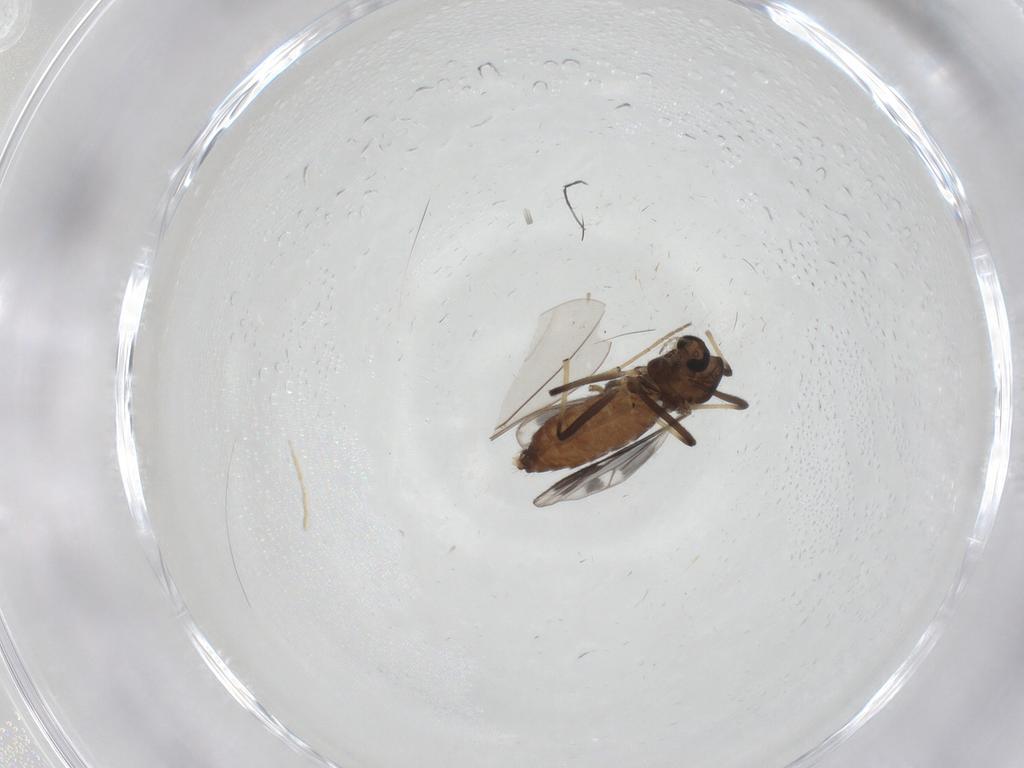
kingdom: Animalia
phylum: Arthropoda
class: Insecta
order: Diptera
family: Chironomidae
